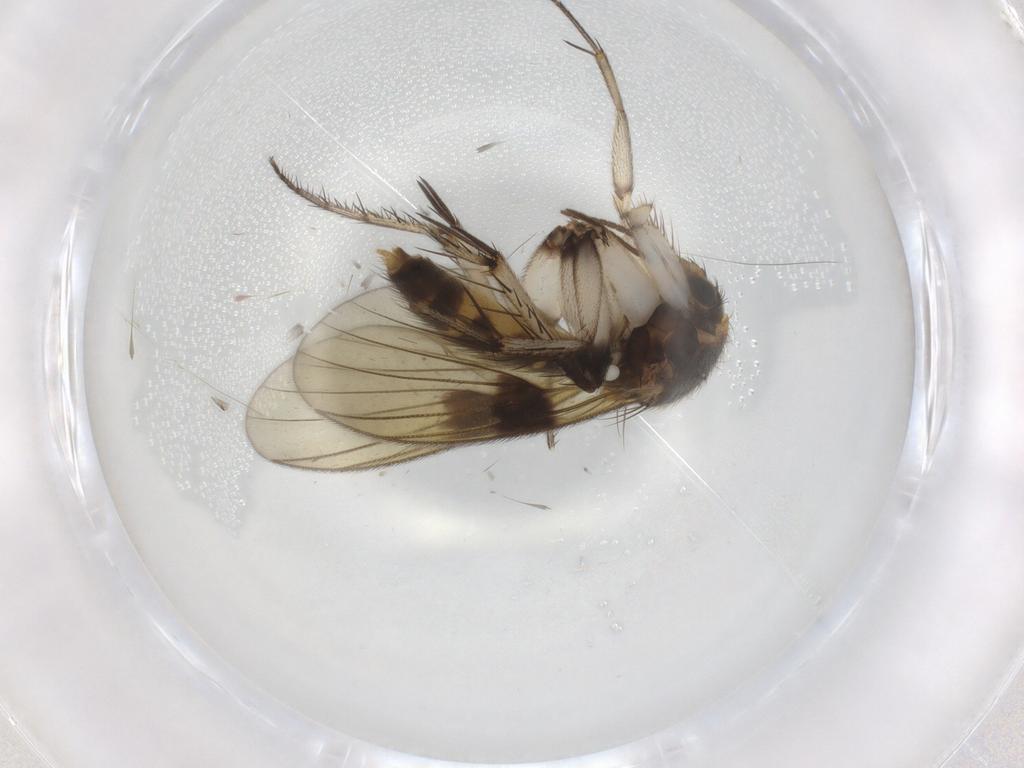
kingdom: Animalia
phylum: Arthropoda
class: Insecta
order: Diptera
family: Mycetophilidae
